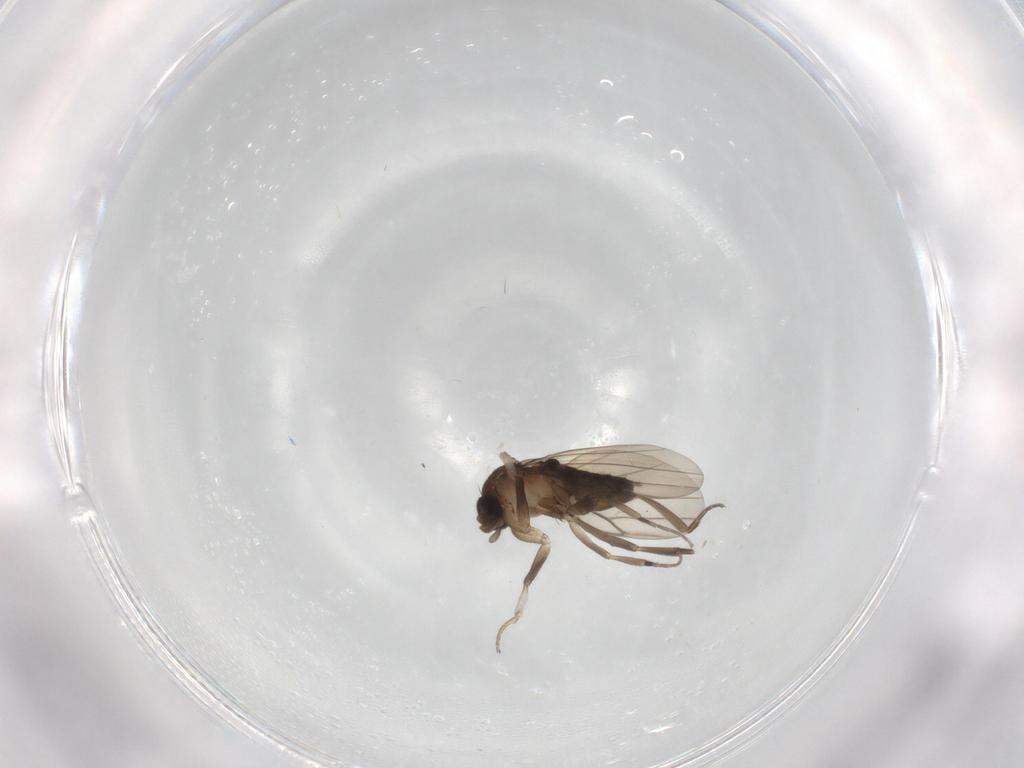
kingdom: Animalia
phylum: Arthropoda
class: Insecta
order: Diptera
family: Phoridae
